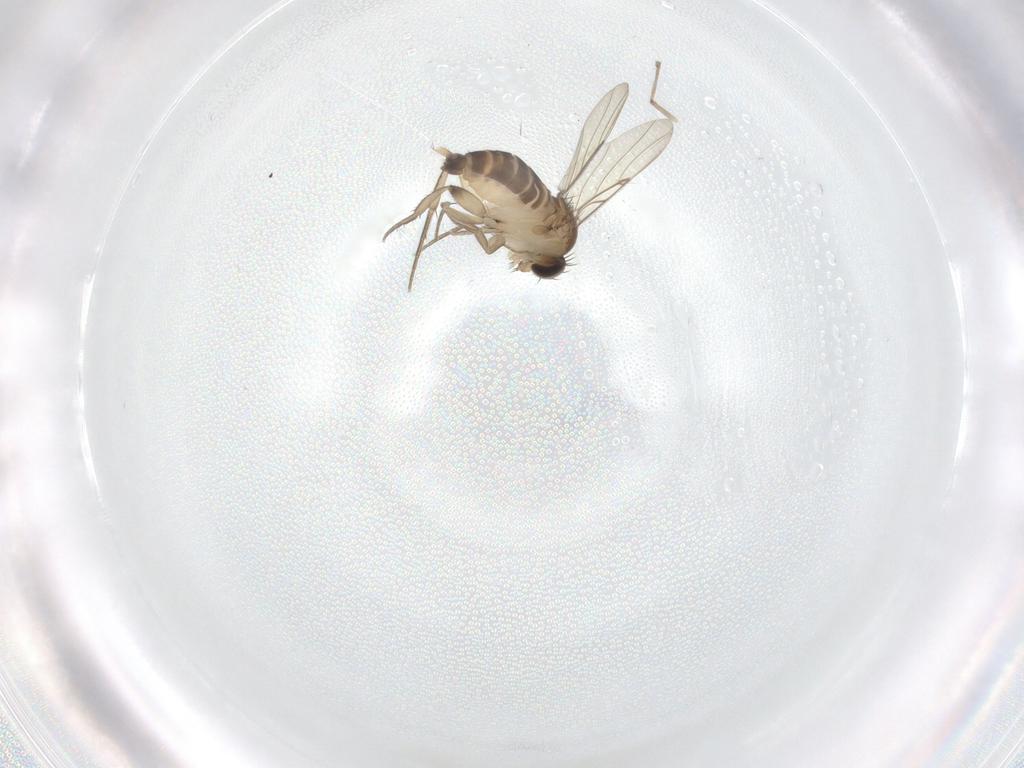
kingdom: Animalia
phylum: Arthropoda
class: Insecta
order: Diptera
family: Phoridae
